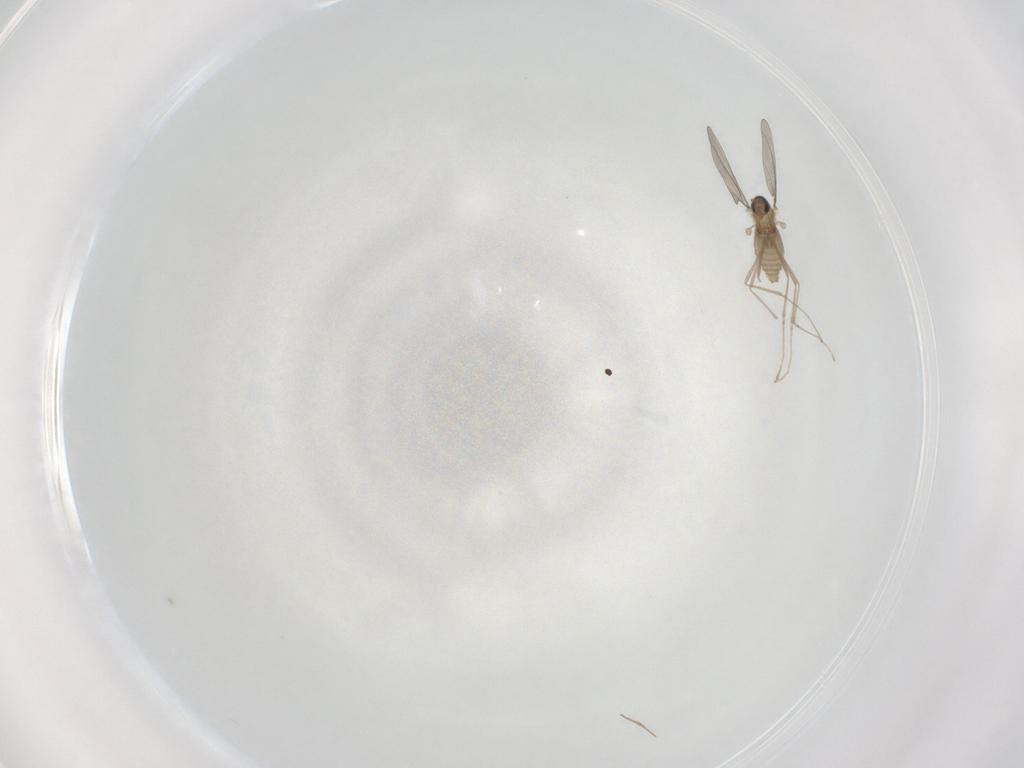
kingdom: Animalia
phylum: Arthropoda
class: Insecta
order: Diptera
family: Cecidomyiidae
